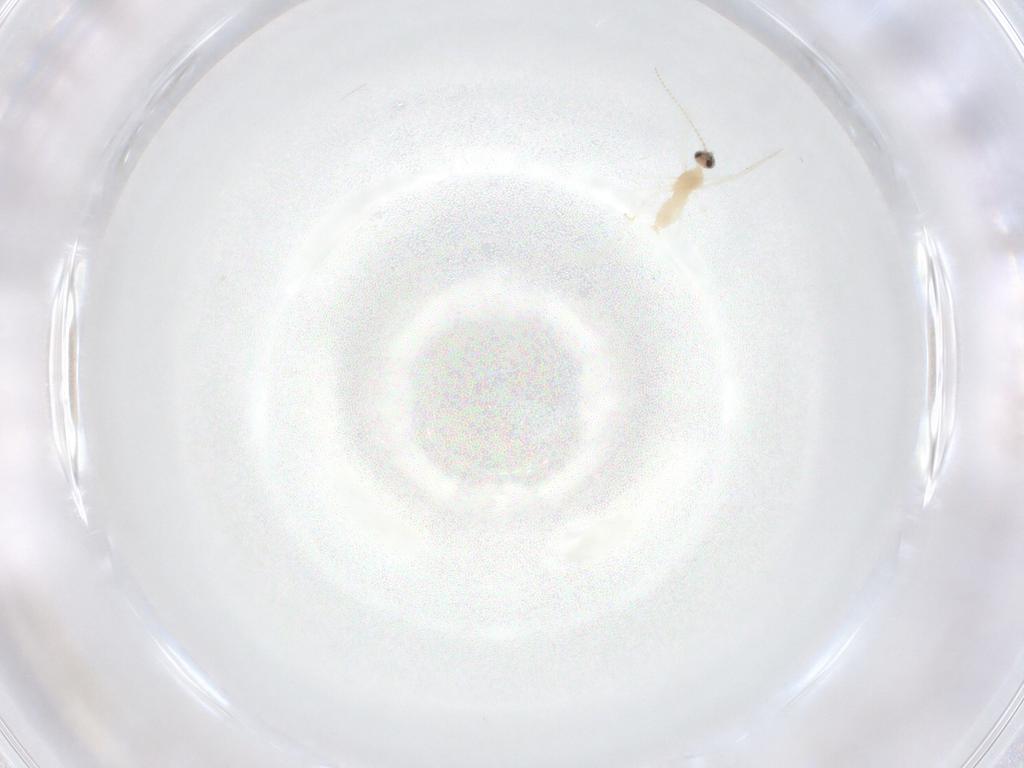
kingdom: Animalia
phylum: Arthropoda
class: Insecta
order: Diptera
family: Cecidomyiidae
